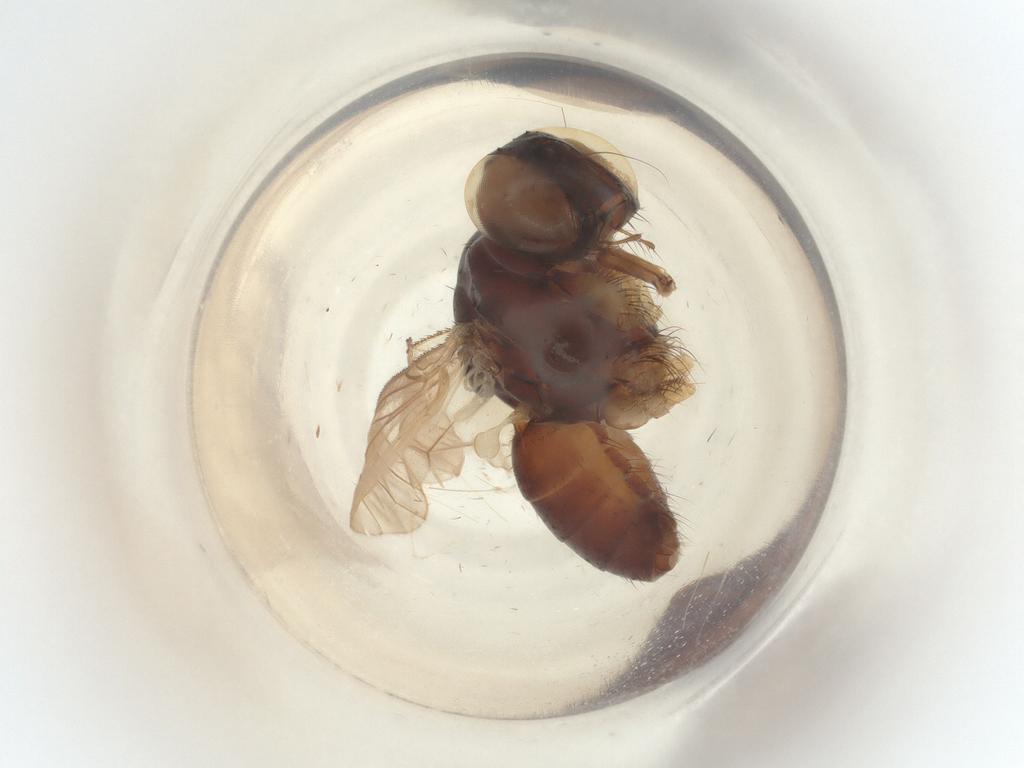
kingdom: Animalia
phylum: Arthropoda
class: Insecta
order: Diptera
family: Muscidae
